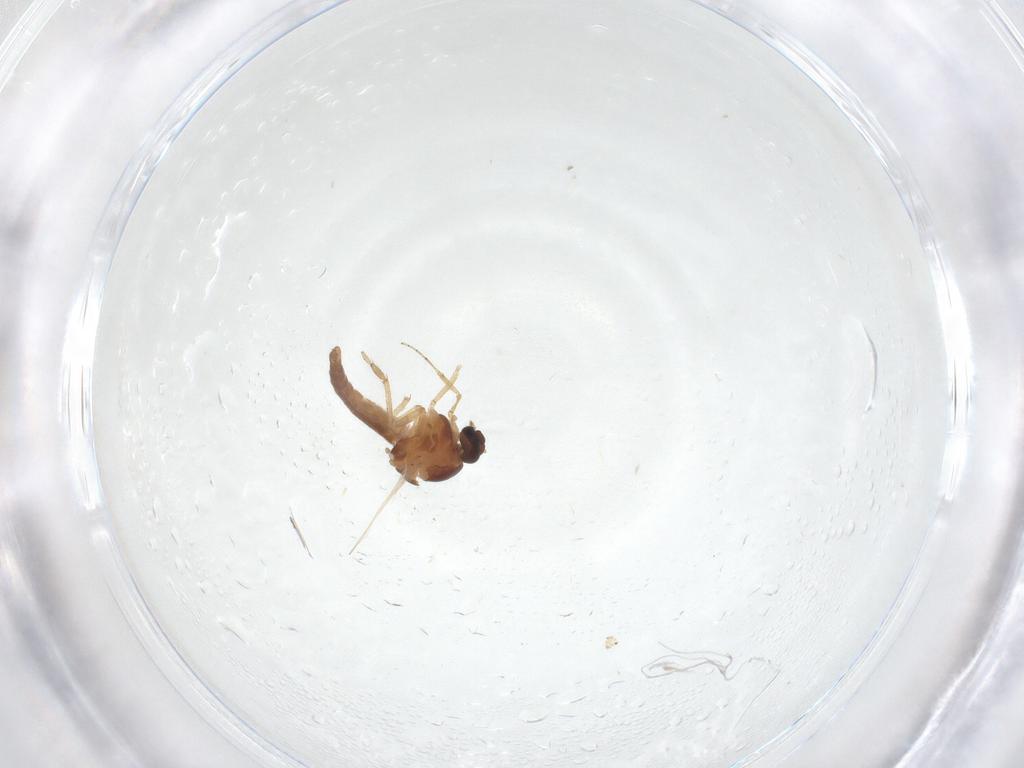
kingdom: Animalia
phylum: Arthropoda
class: Insecta
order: Diptera
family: Ceratopogonidae
